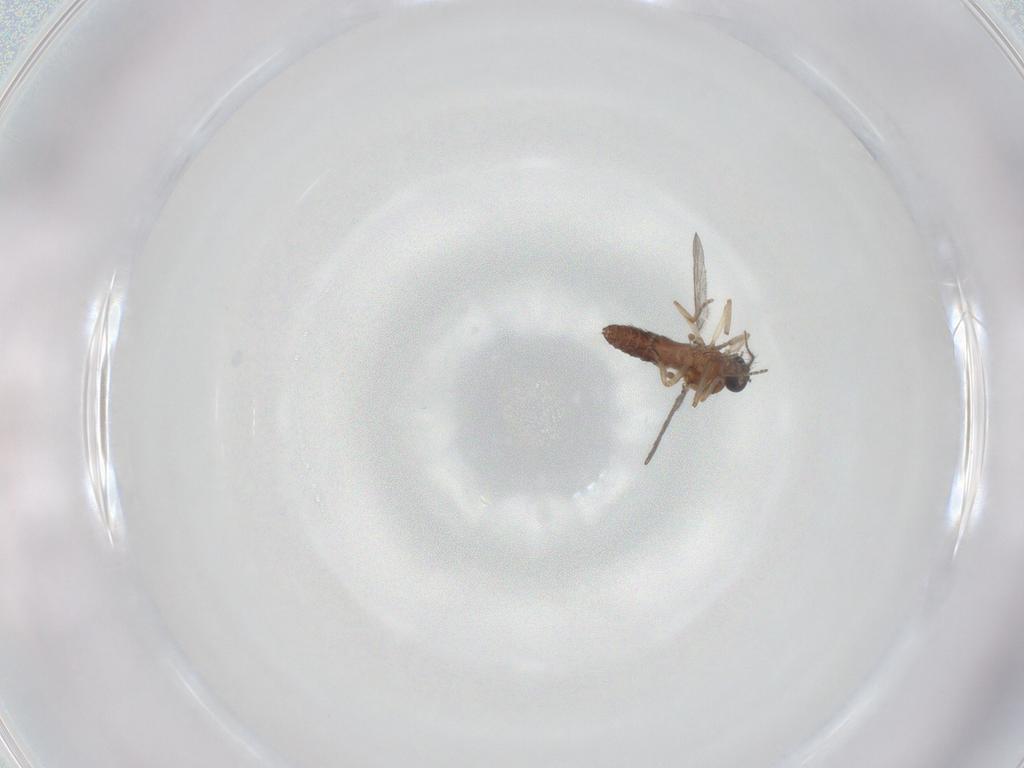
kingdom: Animalia
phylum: Arthropoda
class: Insecta
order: Diptera
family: Ceratopogonidae
